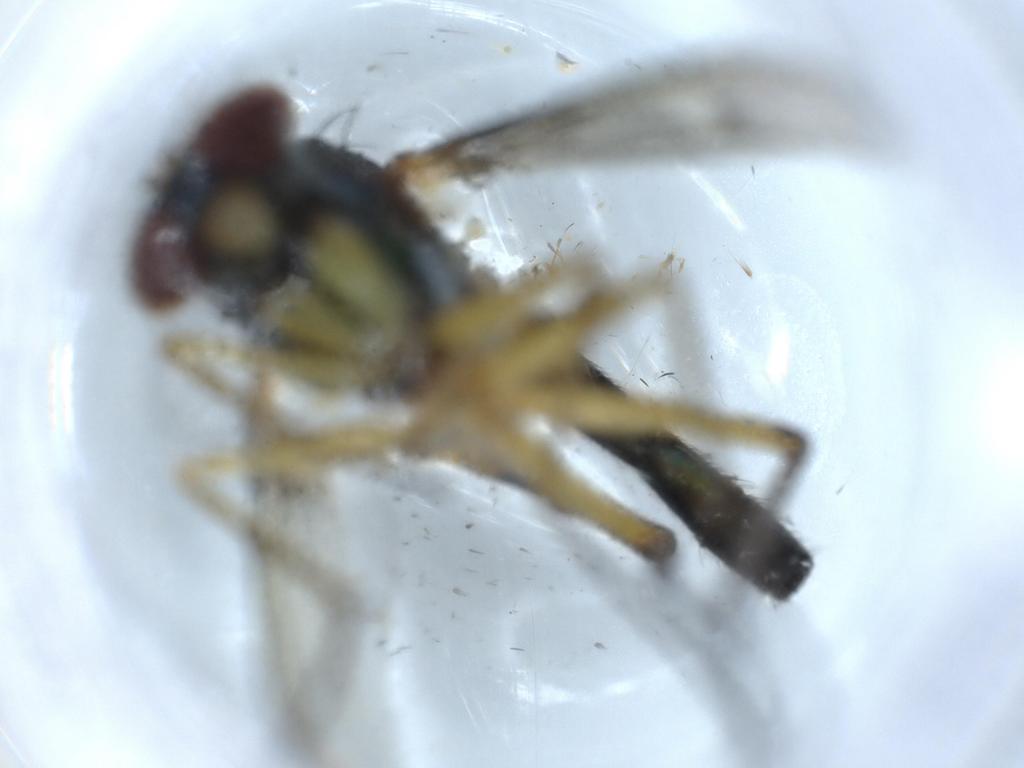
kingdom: Animalia
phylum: Arthropoda
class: Insecta
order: Diptera
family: Dolichopodidae
